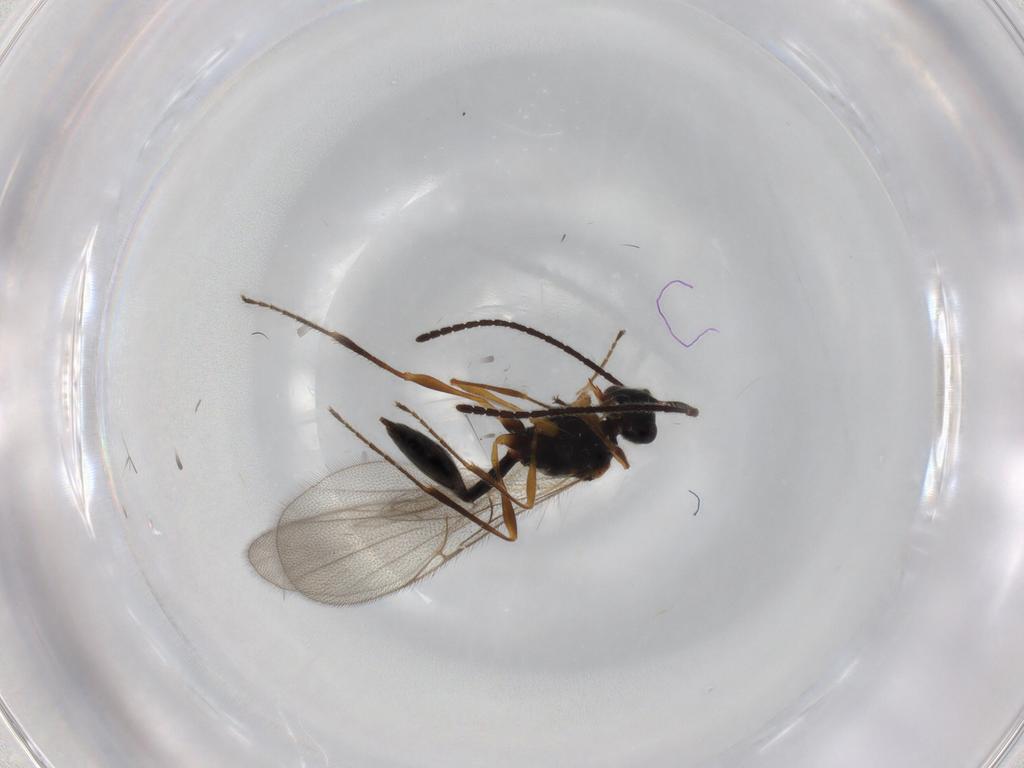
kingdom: Animalia
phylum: Arthropoda
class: Insecta
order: Hymenoptera
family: Diapriidae
